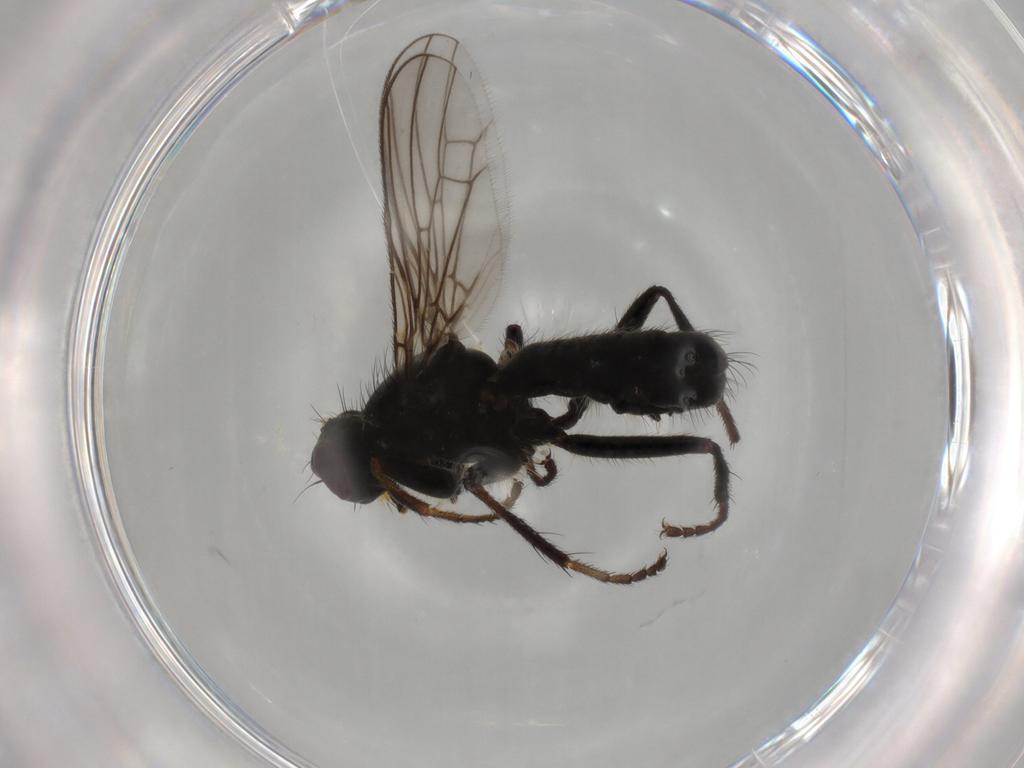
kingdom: Animalia
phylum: Arthropoda
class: Insecta
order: Diptera
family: Scathophagidae
